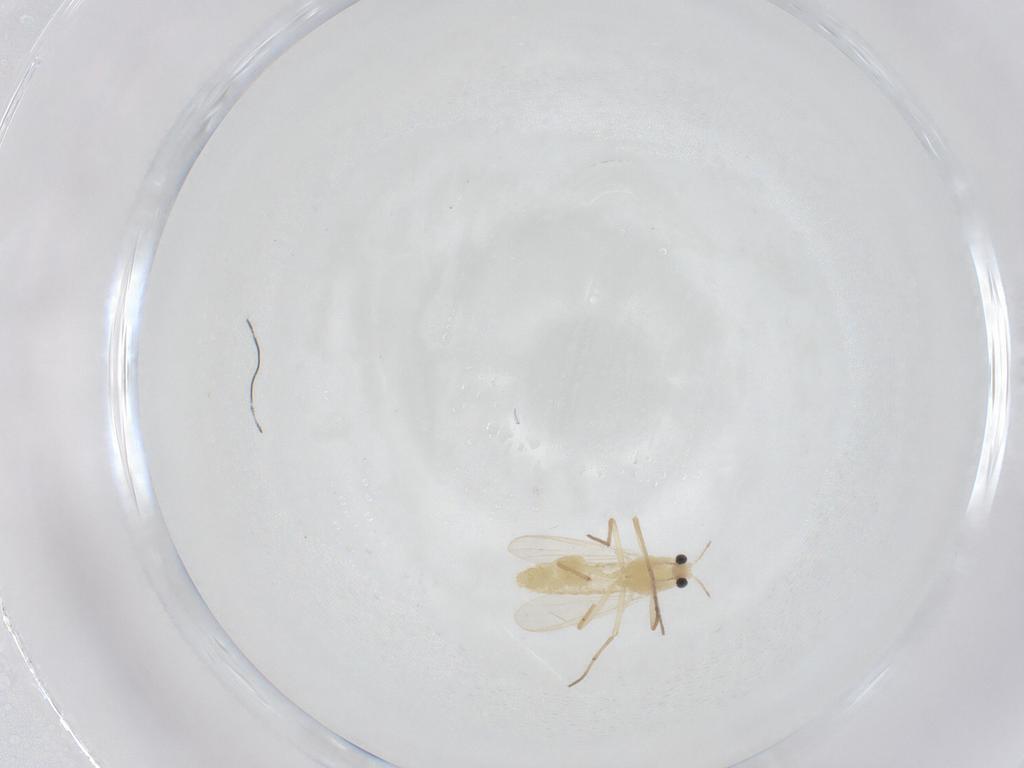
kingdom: Animalia
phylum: Arthropoda
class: Insecta
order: Diptera
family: Chironomidae
